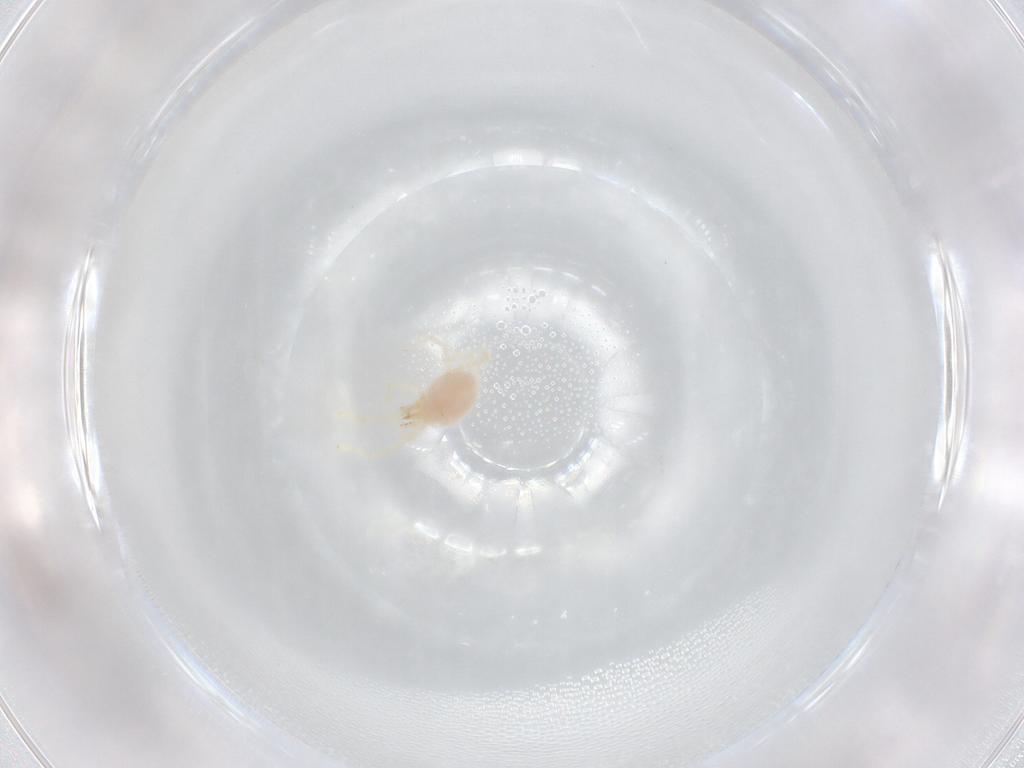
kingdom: Animalia
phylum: Arthropoda
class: Arachnida
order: Trombidiformes
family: Erythraeidae
